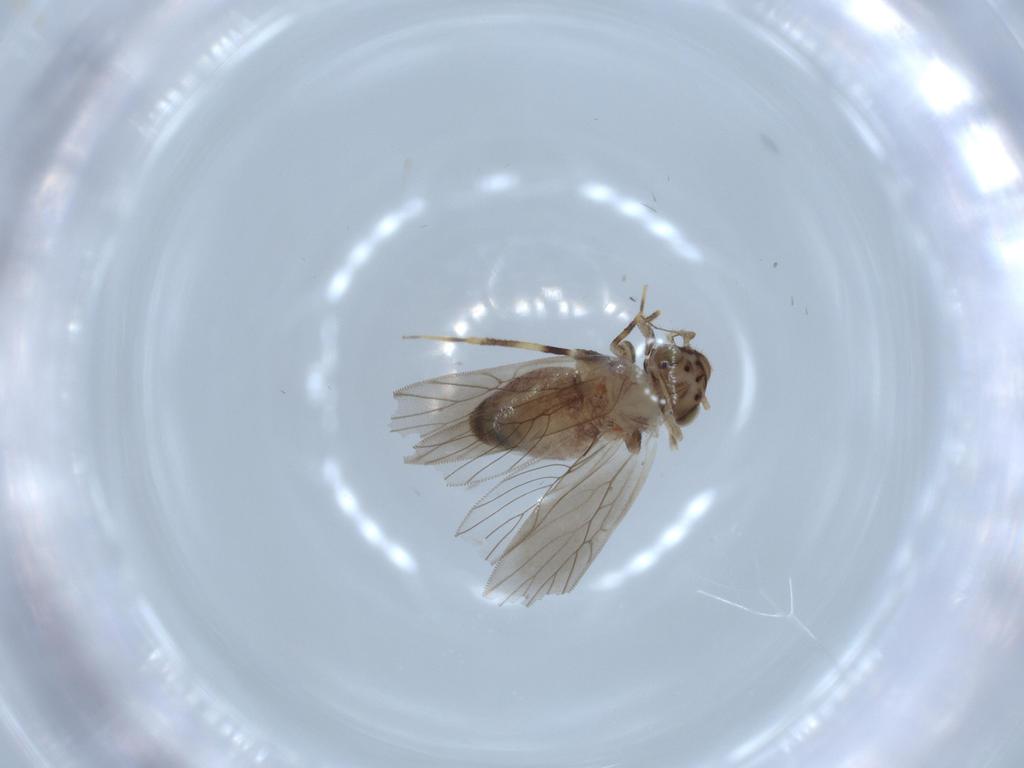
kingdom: Animalia
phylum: Arthropoda
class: Insecta
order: Psocodea
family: Lepidopsocidae
